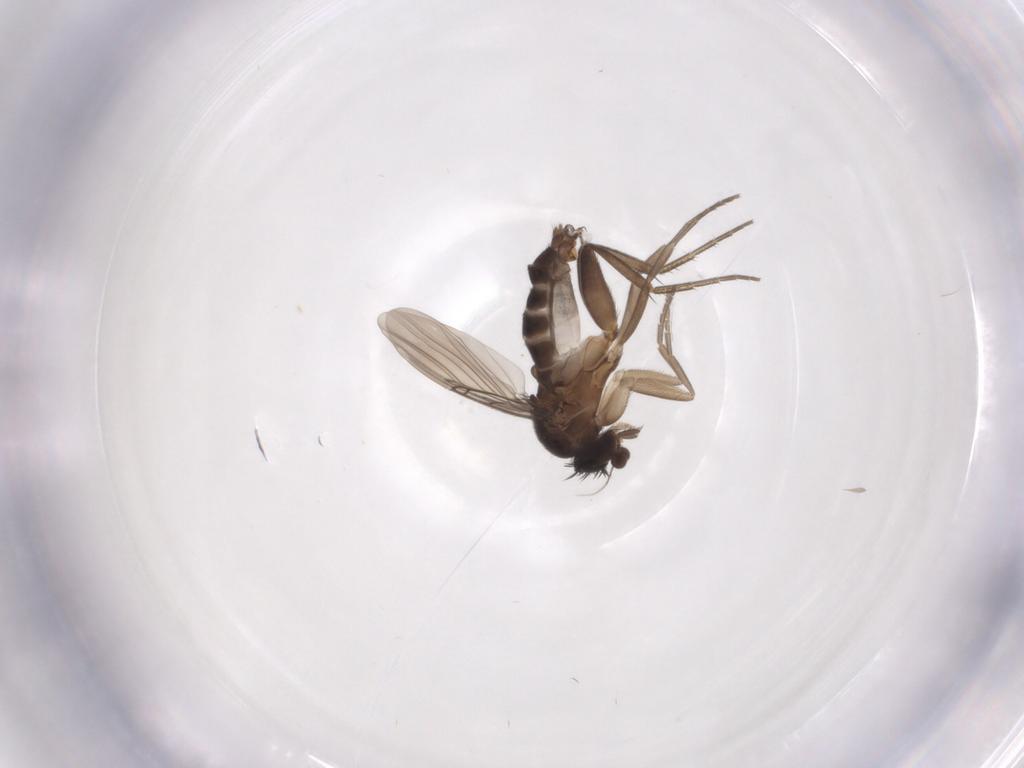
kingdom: Animalia
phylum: Arthropoda
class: Insecta
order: Diptera
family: Phoridae
